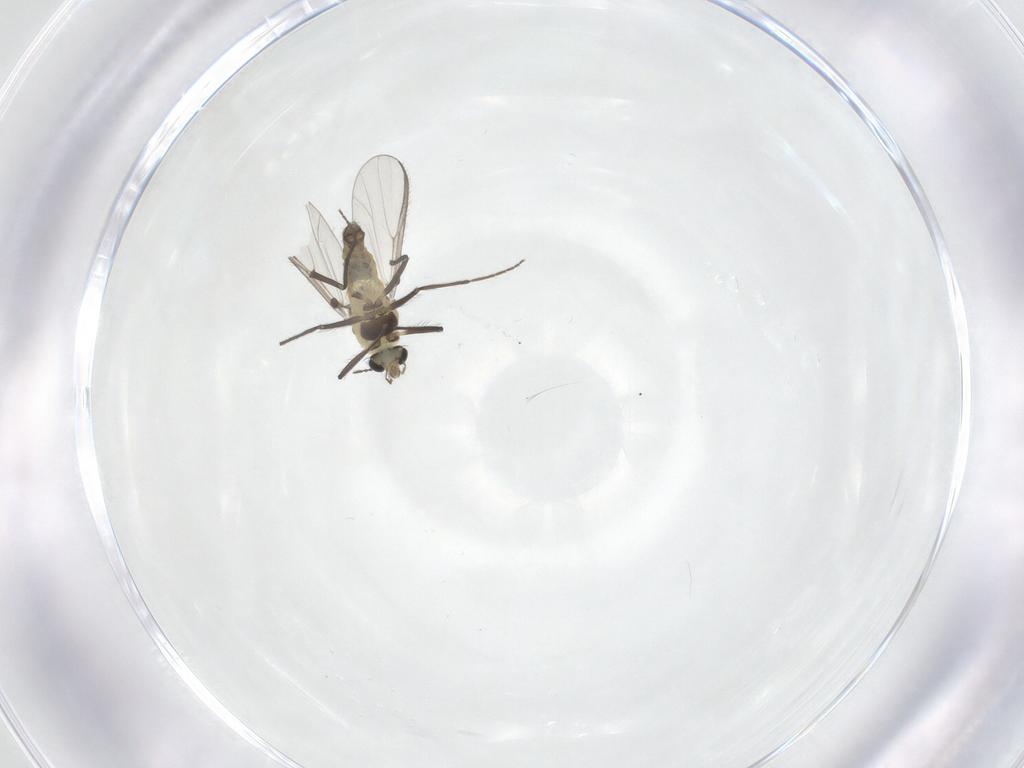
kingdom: Animalia
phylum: Arthropoda
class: Insecta
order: Diptera
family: Chironomidae
